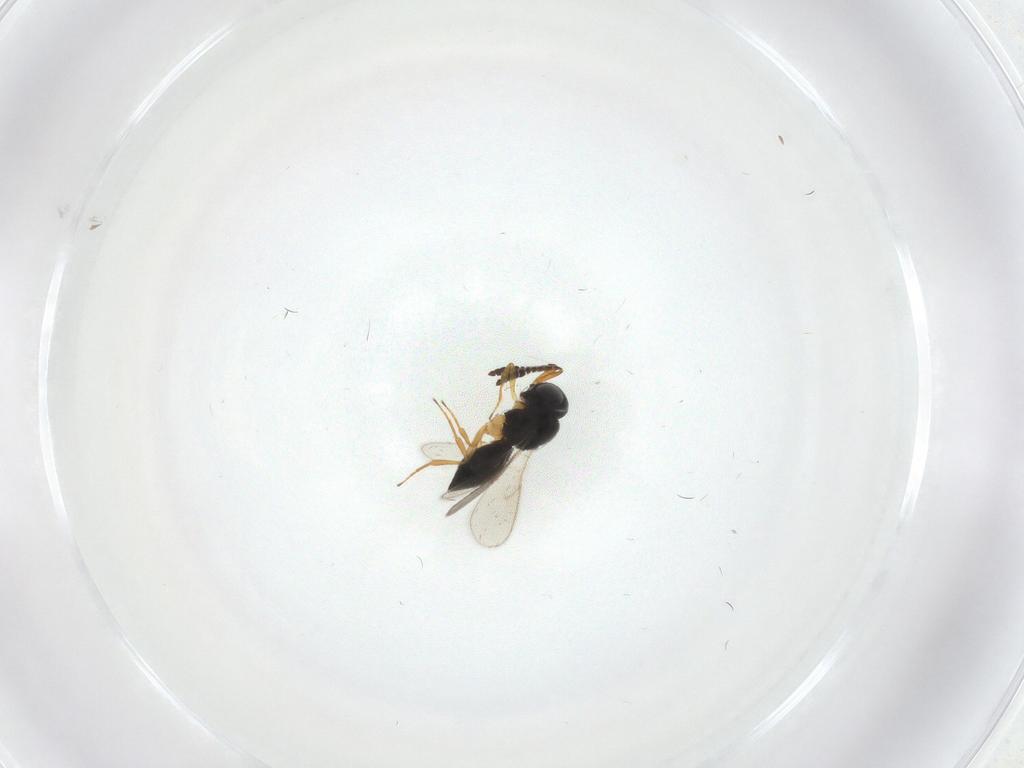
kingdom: Animalia
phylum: Arthropoda
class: Insecta
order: Hymenoptera
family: Scelionidae
